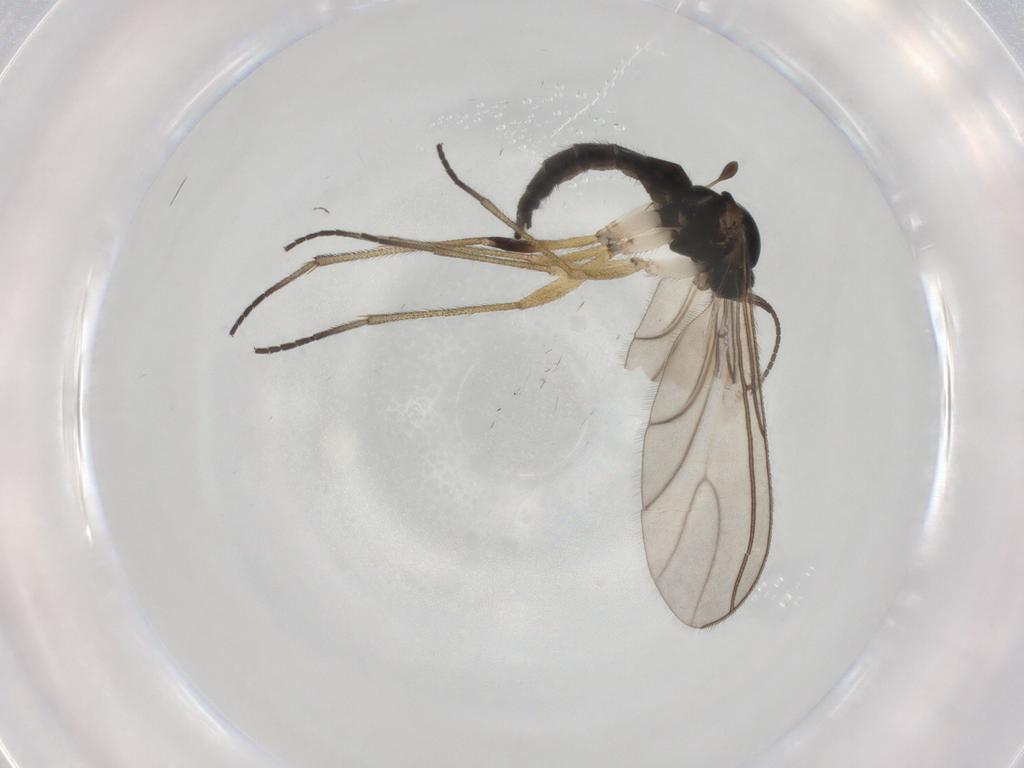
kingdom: Animalia
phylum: Arthropoda
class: Insecta
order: Diptera
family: Sciaridae
